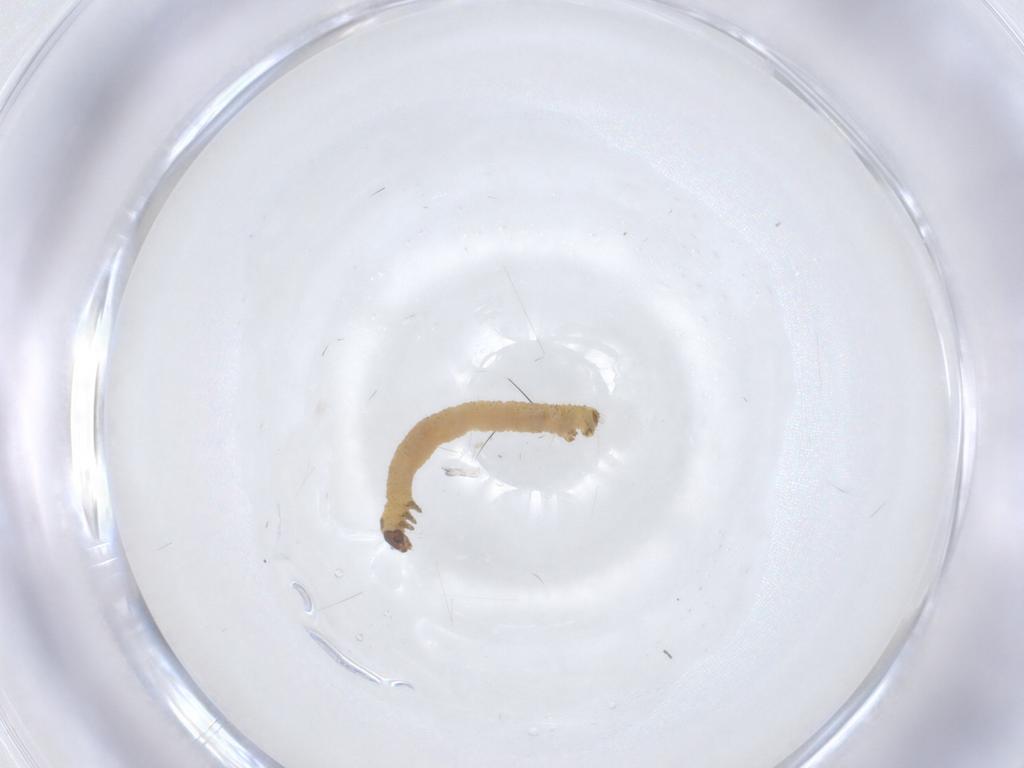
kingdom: Animalia
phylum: Arthropoda
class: Insecta
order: Lepidoptera
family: Geometridae
